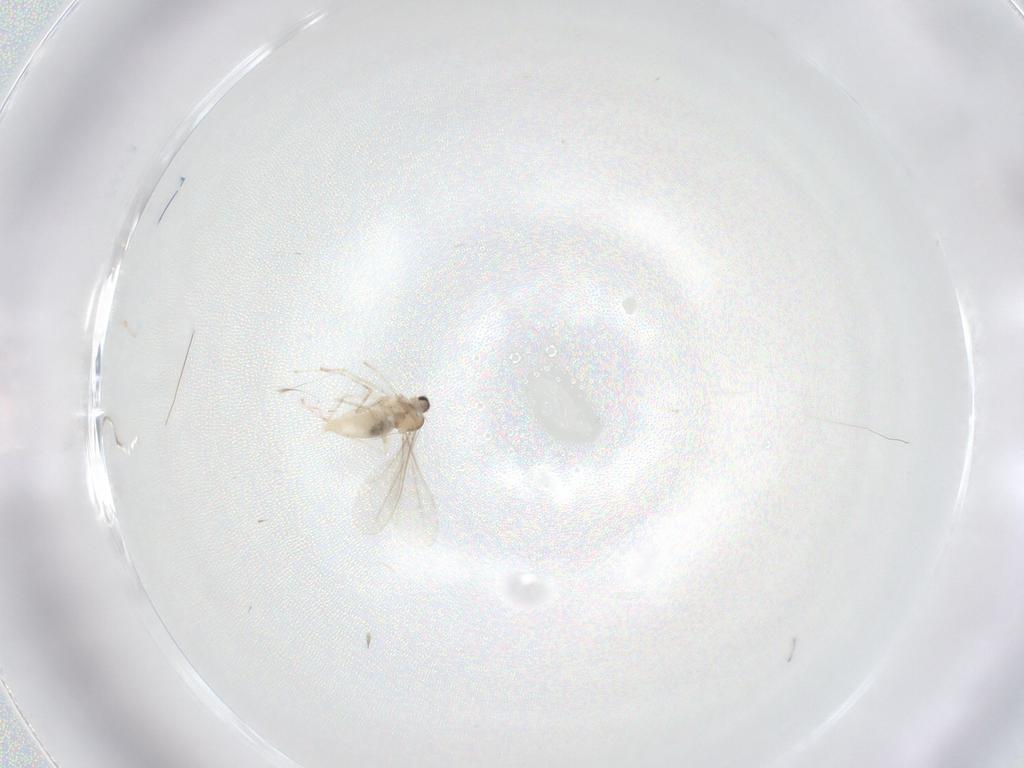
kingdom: Animalia
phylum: Arthropoda
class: Insecta
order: Diptera
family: Cecidomyiidae
